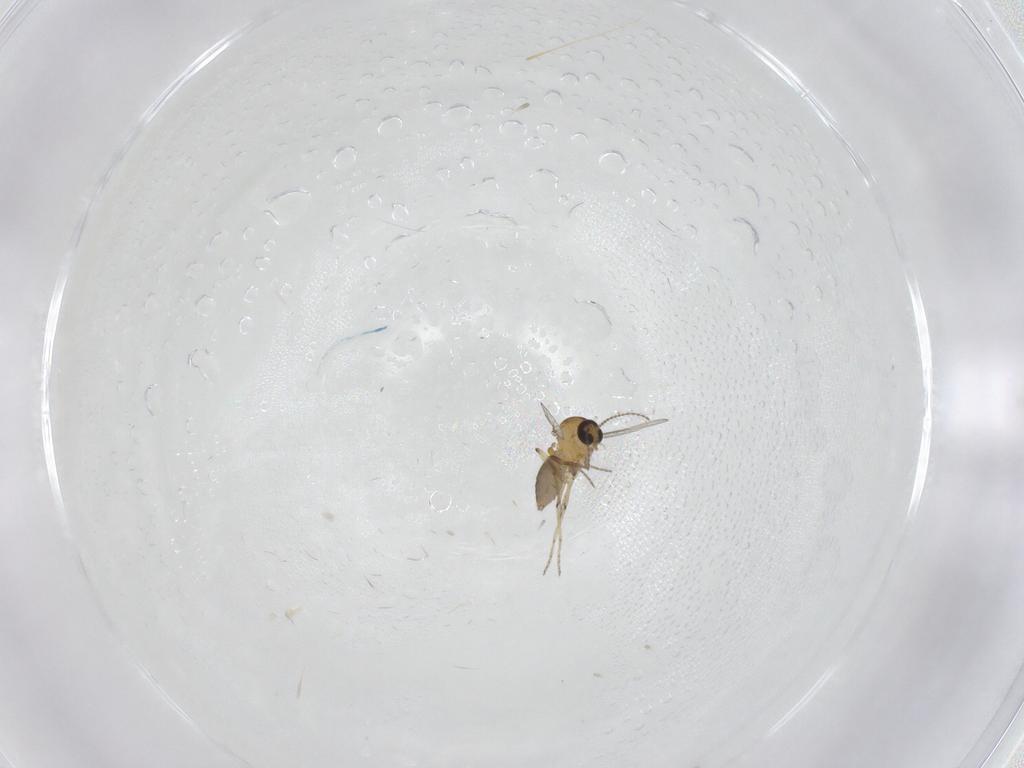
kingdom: Animalia
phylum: Arthropoda
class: Insecta
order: Diptera
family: Ceratopogonidae
